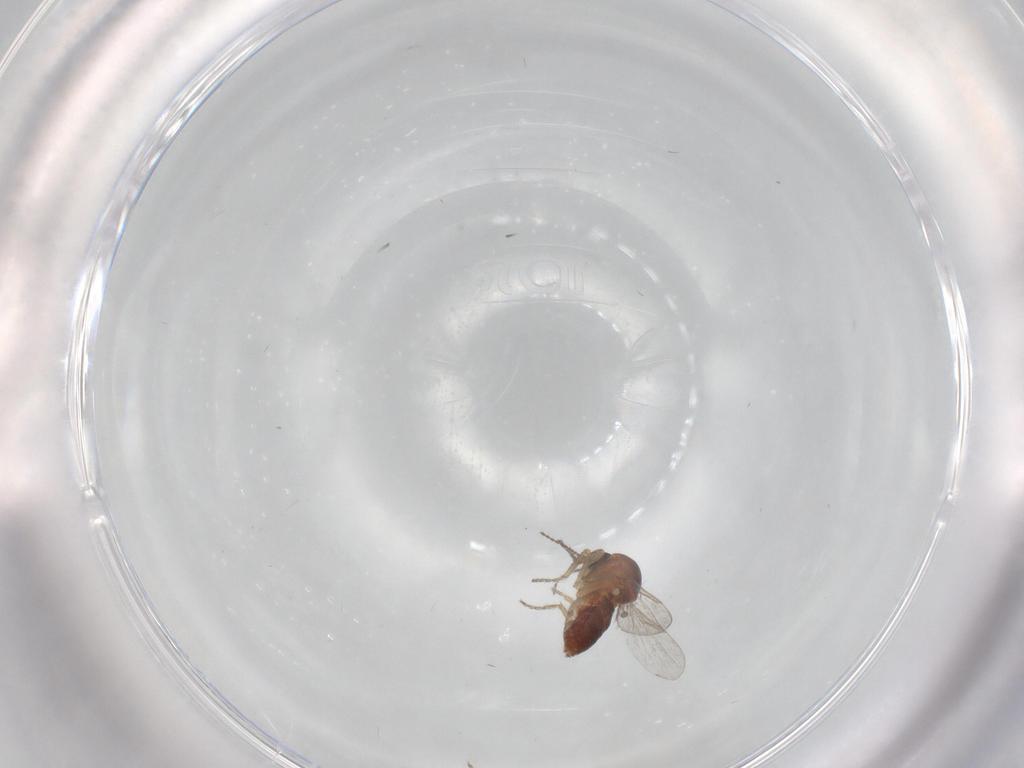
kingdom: Animalia
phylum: Arthropoda
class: Insecta
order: Diptera
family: Ceratopogonidae
